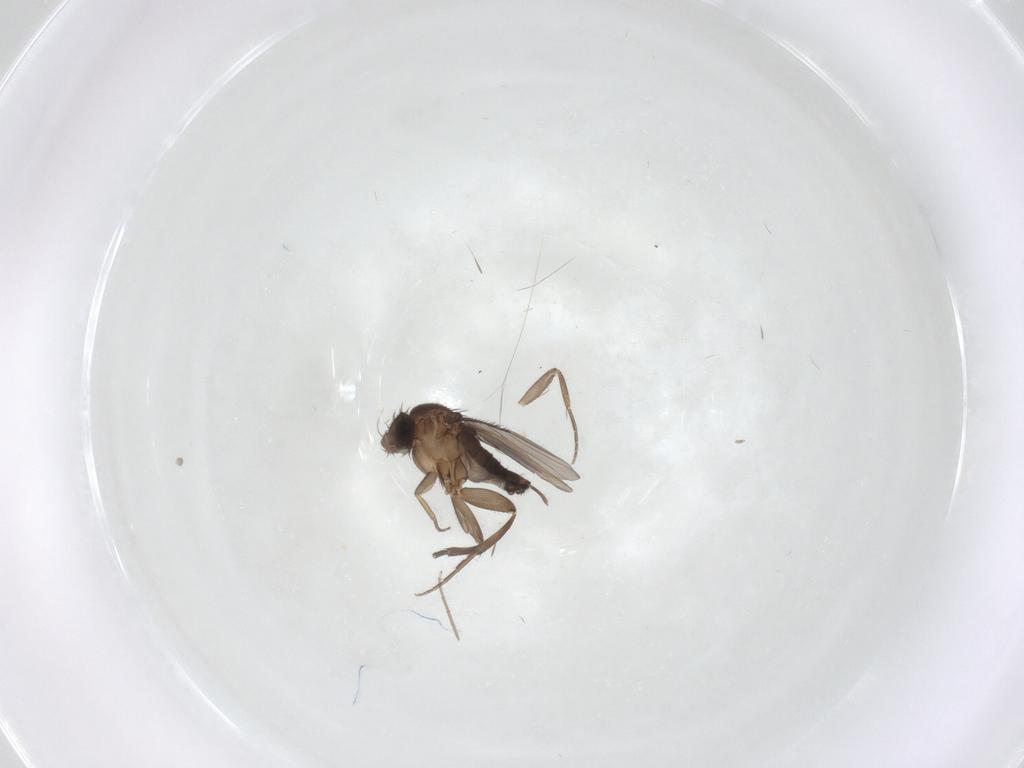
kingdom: Animalia
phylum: Arthropoda
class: Insecta
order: Diptera
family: Phoridae
